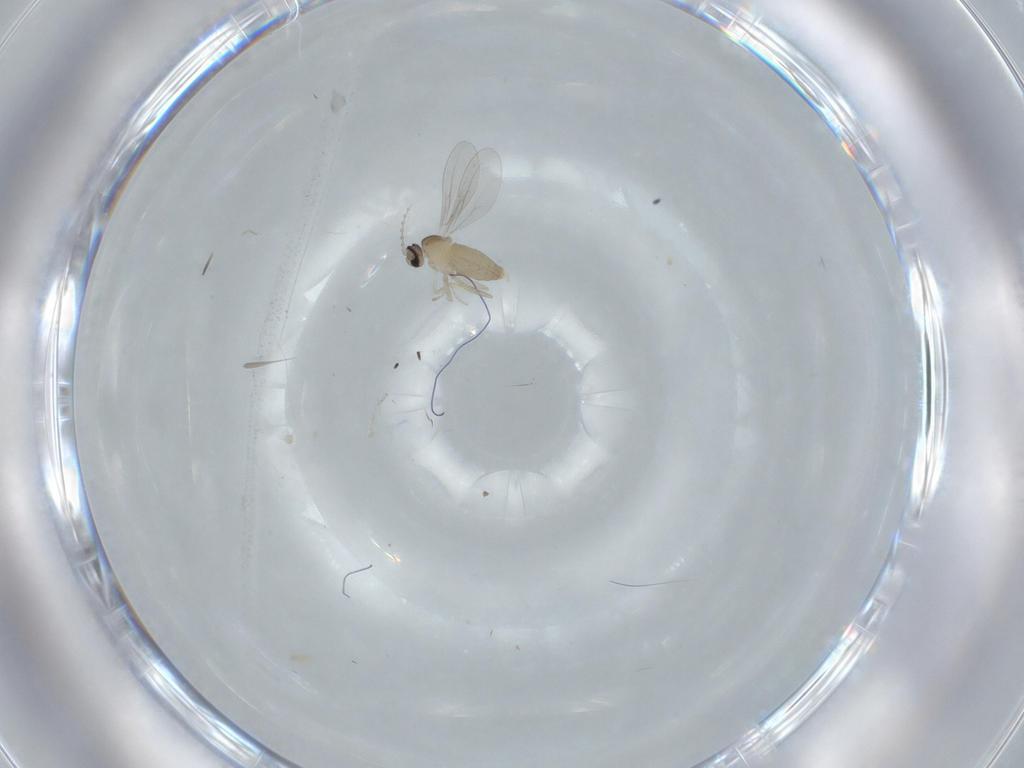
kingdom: Animalia
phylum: Arthropoda
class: Insecta
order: Diptera
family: Cecidomyiidae
